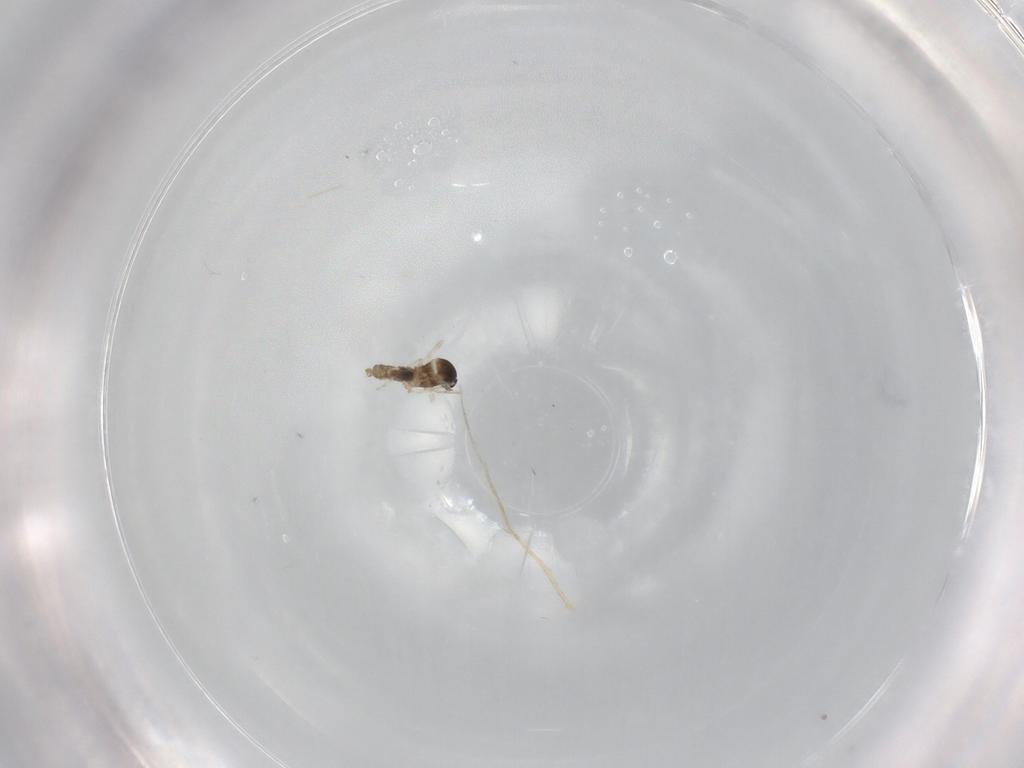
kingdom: Animalia
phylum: Arthropoda
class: Insecta
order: Diptera
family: Cecidomyiidae
